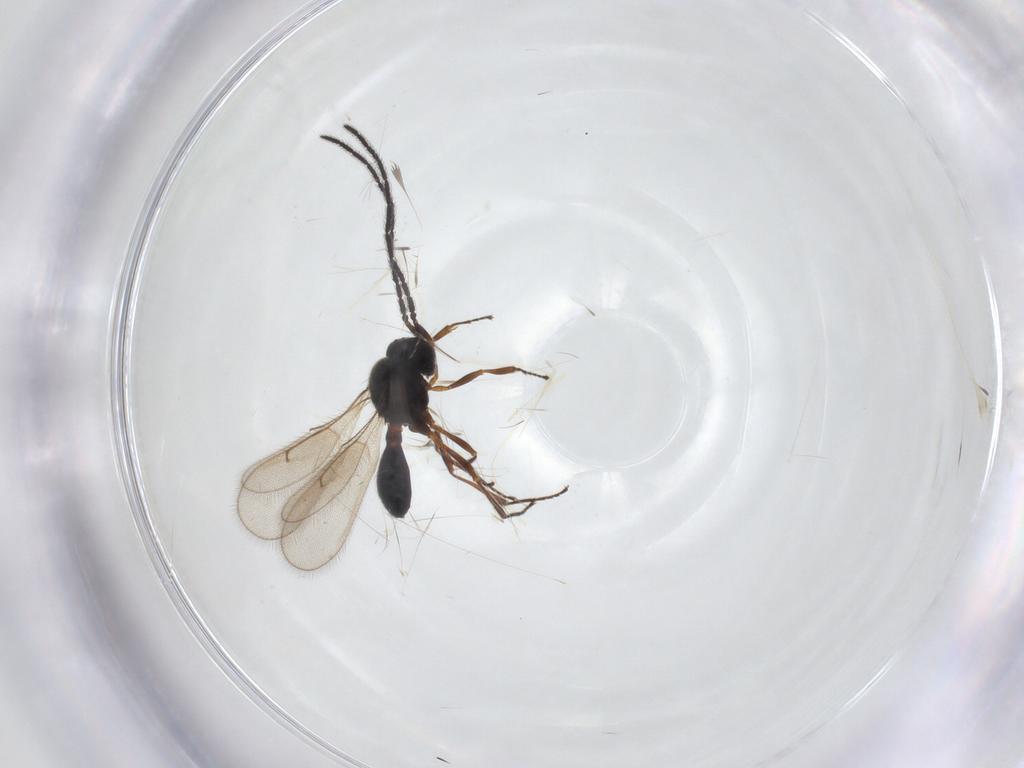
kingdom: Animalia
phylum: Arthropoda
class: Insecta
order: Hymenoptera
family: Scelionidae
